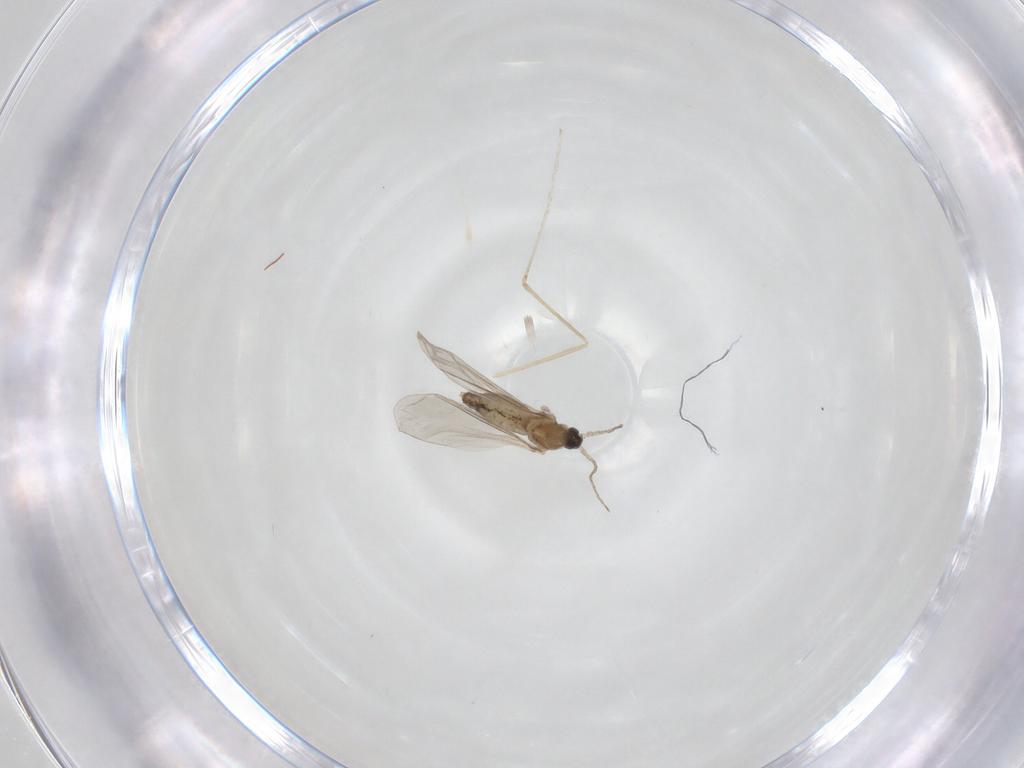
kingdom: Animalia
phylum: Arthropoda
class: Insecta
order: Diptera
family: Cecidomyiidae
